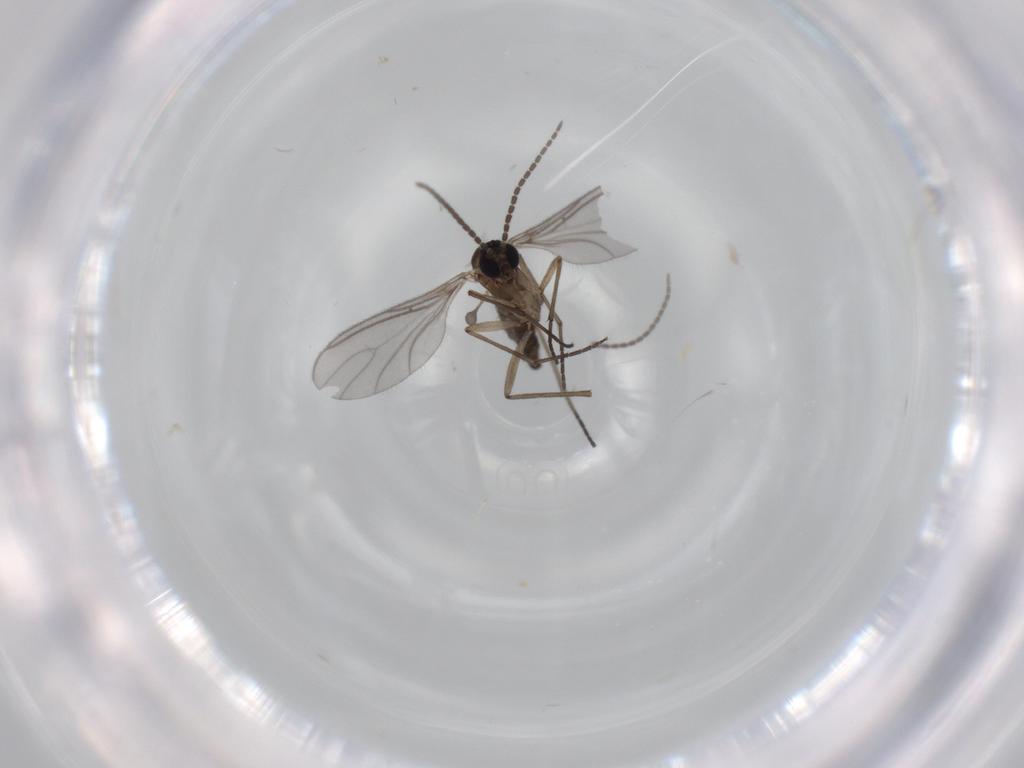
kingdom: Animalia
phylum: Arthropoda
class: Insecta
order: Diptera
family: Sciaridae
